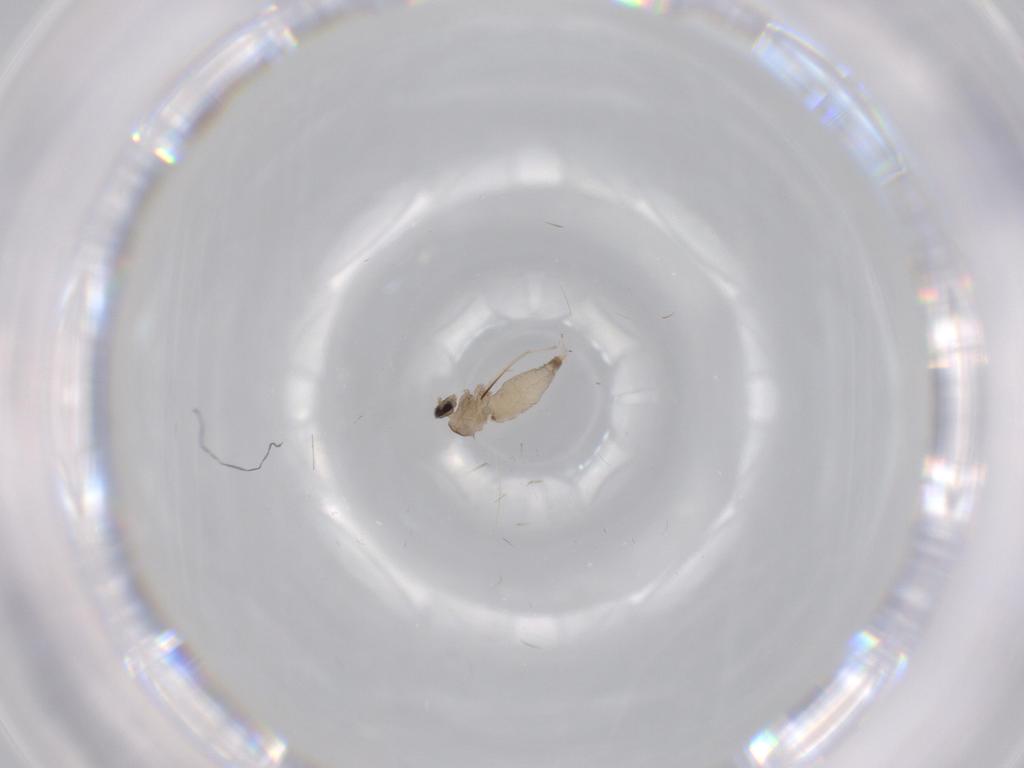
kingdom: Animalia
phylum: Arthropoda
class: Insecta
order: Diptera
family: Cecidomyiidae
